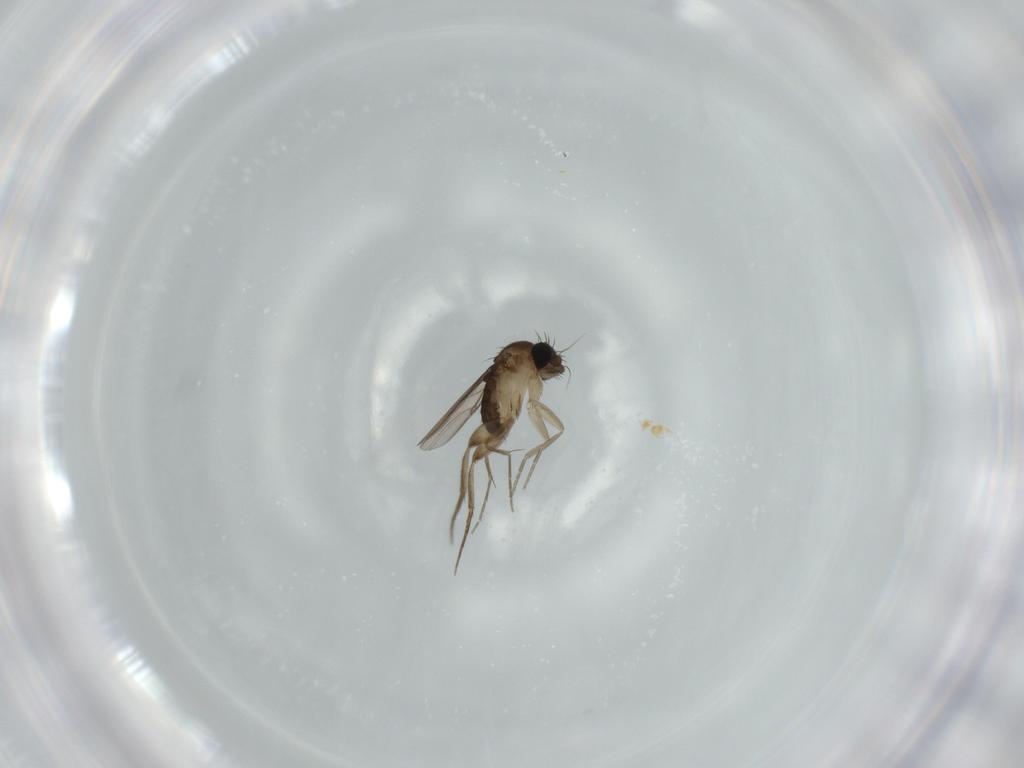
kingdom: Animalia
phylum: Arthropoda
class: Insecta
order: Diptera
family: Phoridae
